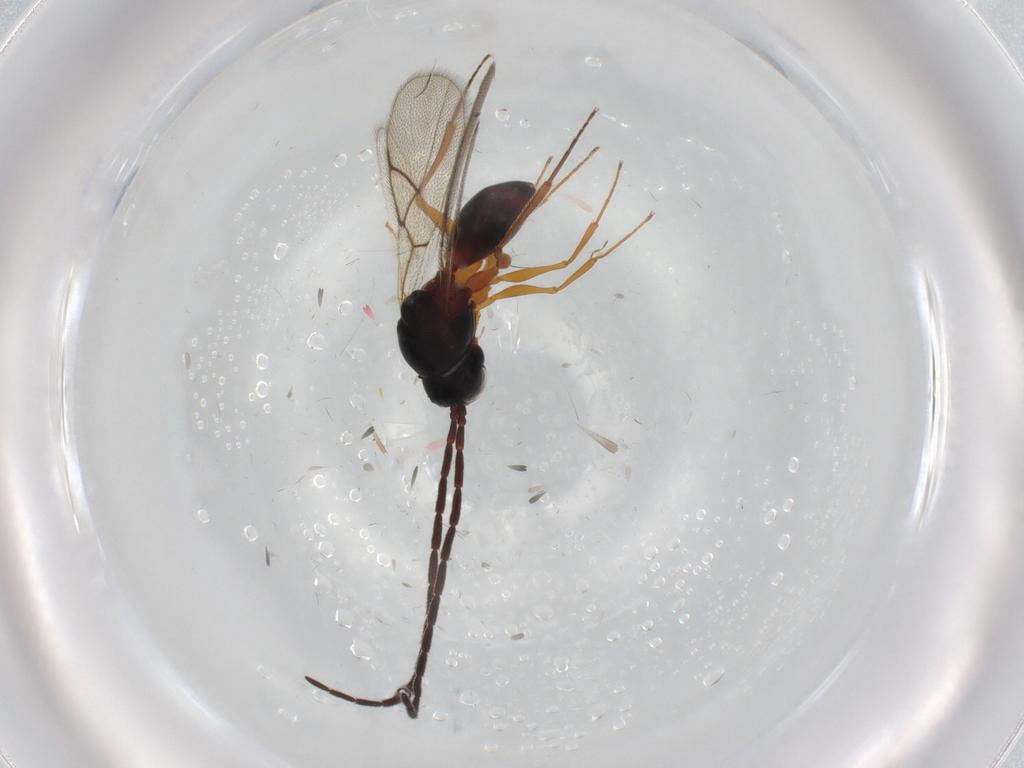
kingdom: Animalia
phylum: Arthropoda
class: Insecta
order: Hymenoptera
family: Figitidae
